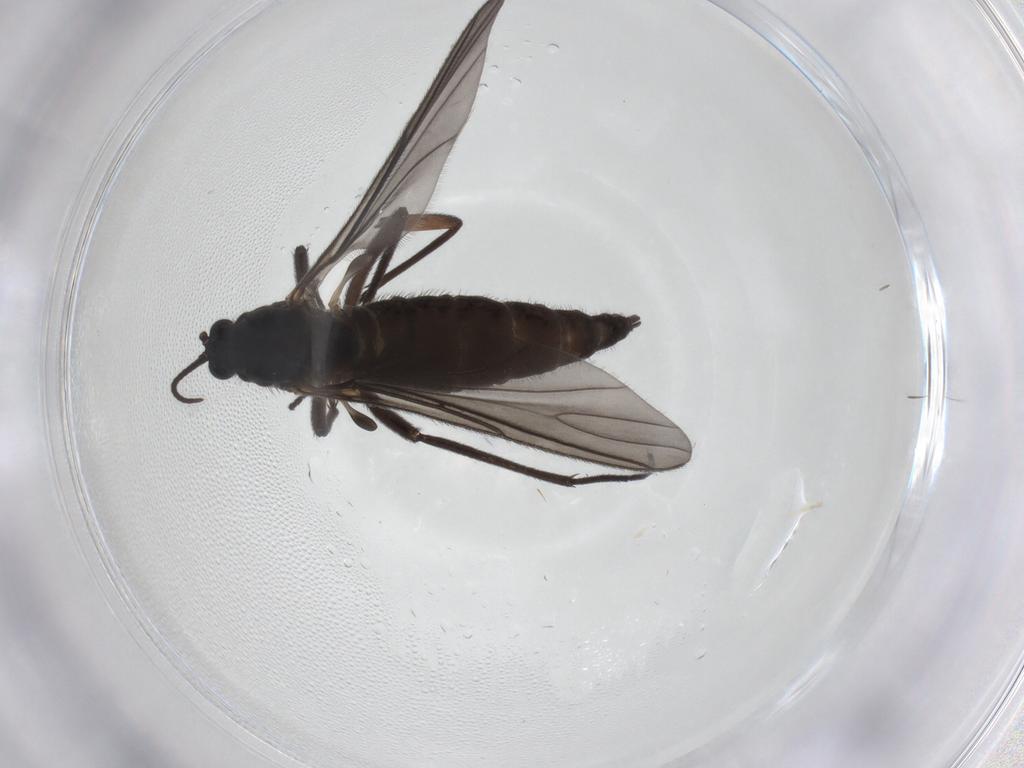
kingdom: Animalia
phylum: Arthropoda
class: Insecta
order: Diptera
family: Sciaridae
